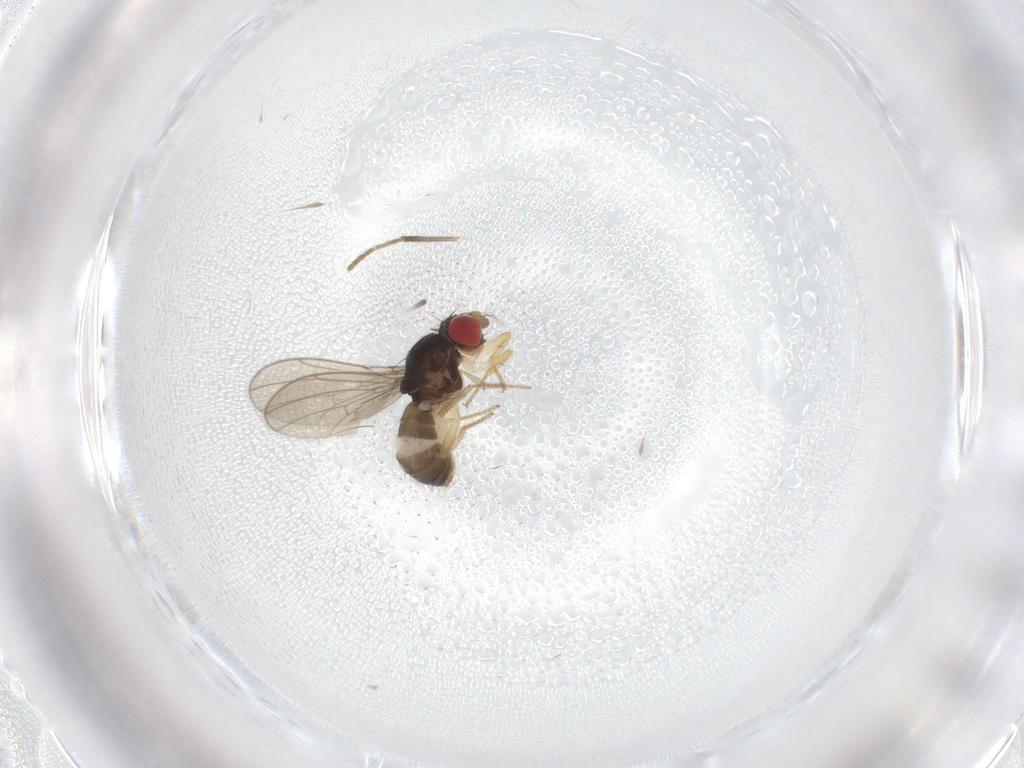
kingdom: Animalia
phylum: Arthropoda
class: Insecta
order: Diptera
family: Drosophilidae
